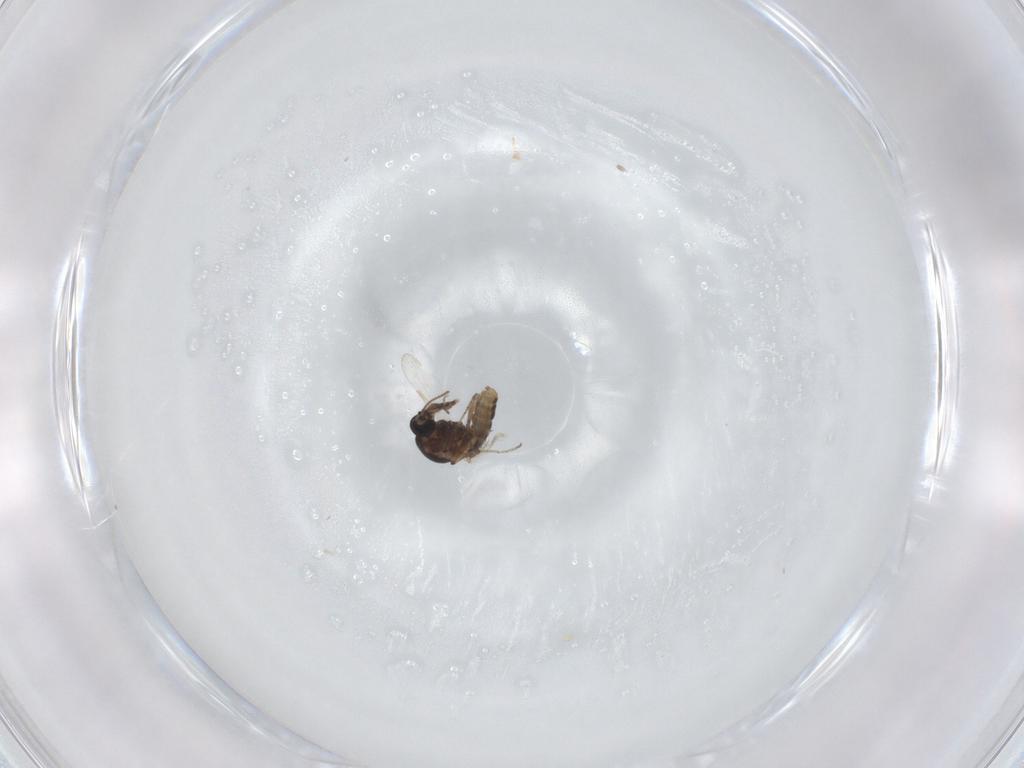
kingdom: Animalia
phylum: Arthropoda
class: Insecta
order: Diptera
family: Ceratopogonidae
